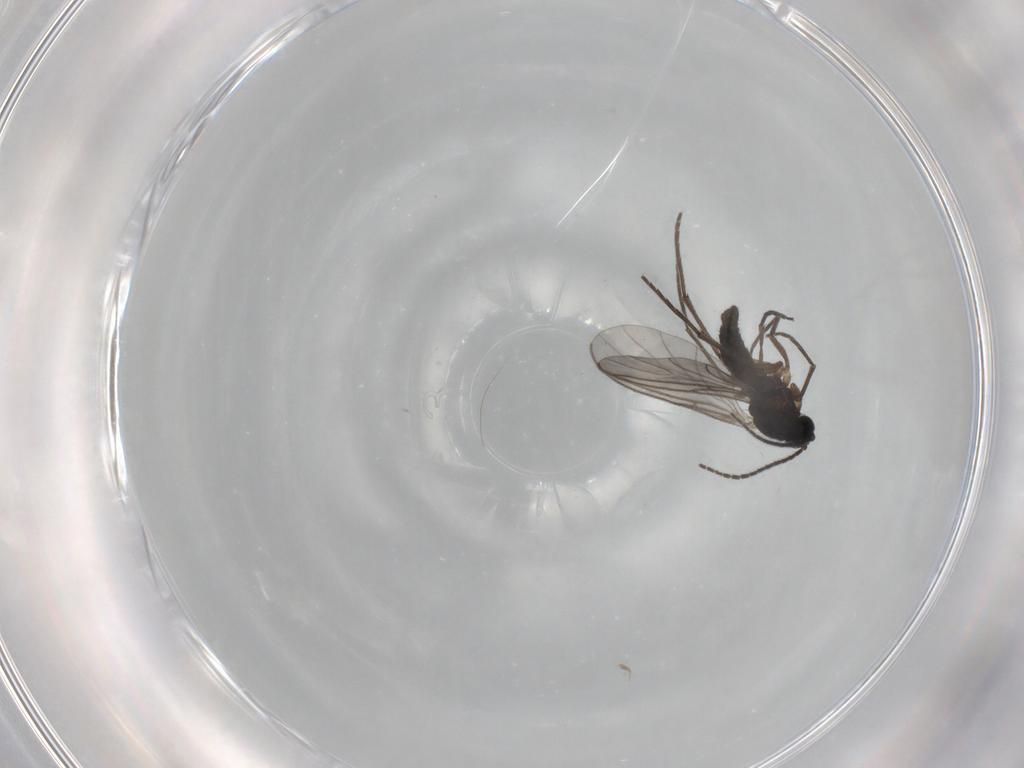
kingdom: Animalia
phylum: Arthropoda
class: Insecta
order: Diptera
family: Sciaridae
